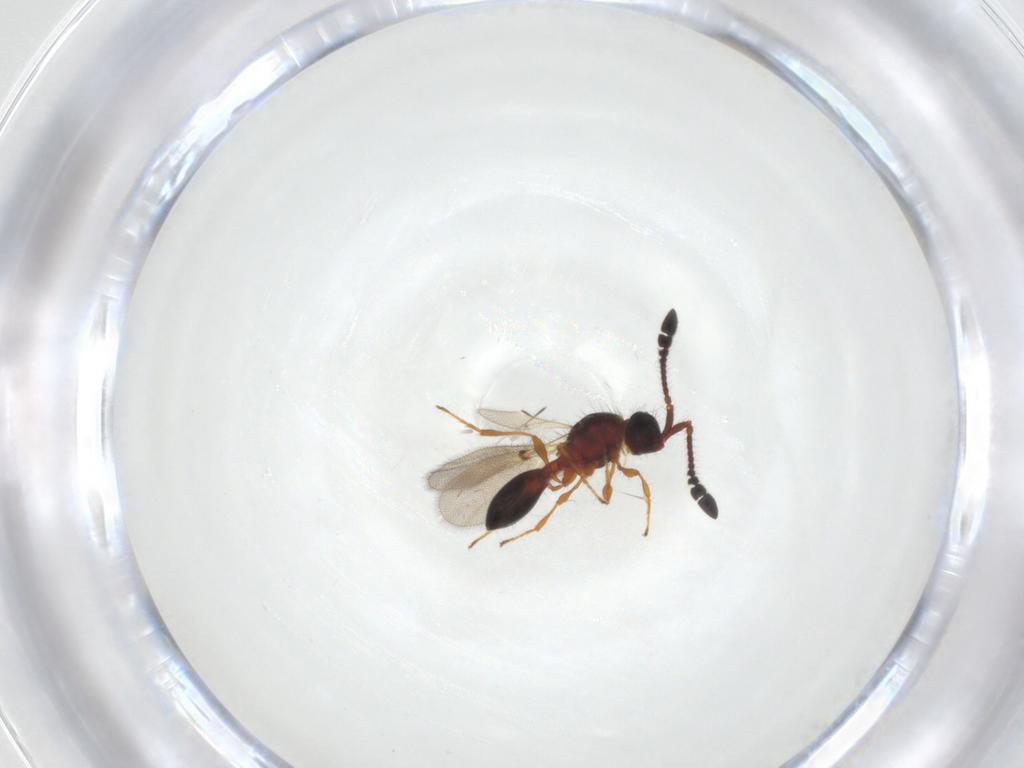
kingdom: Animalia
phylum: Arthropoda
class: Insecta
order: Hymenoptera
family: Diapriidae
